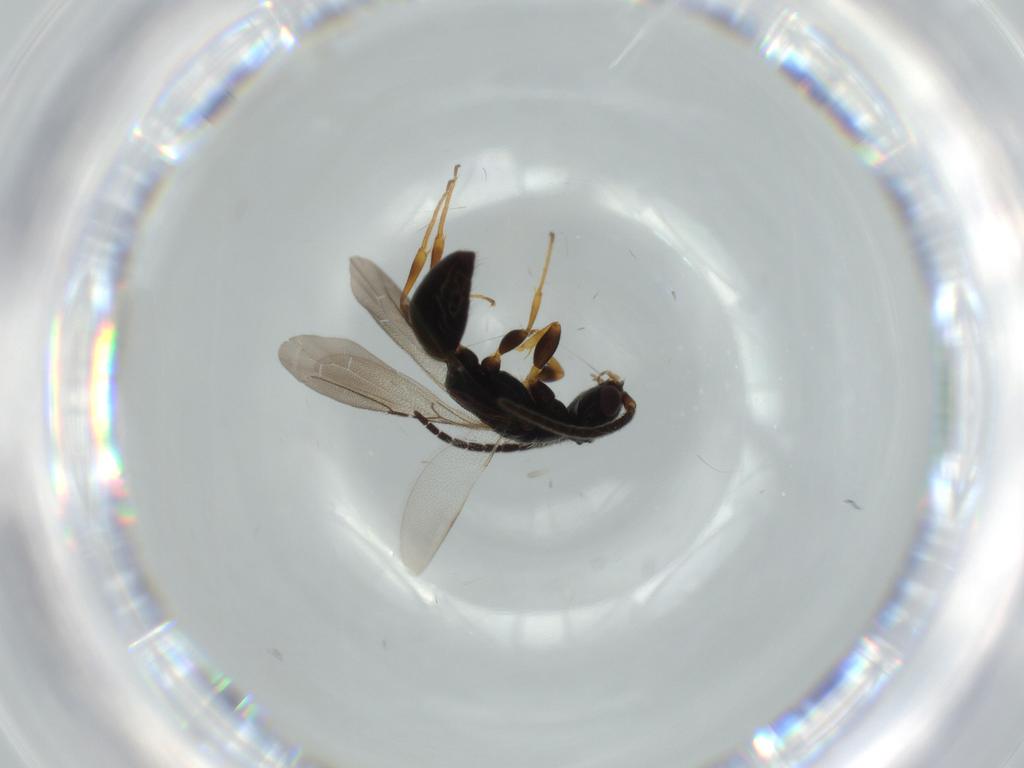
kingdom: Animalia
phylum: Arthropoda
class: Insecta
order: Hymenoptera
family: Bethylidae
